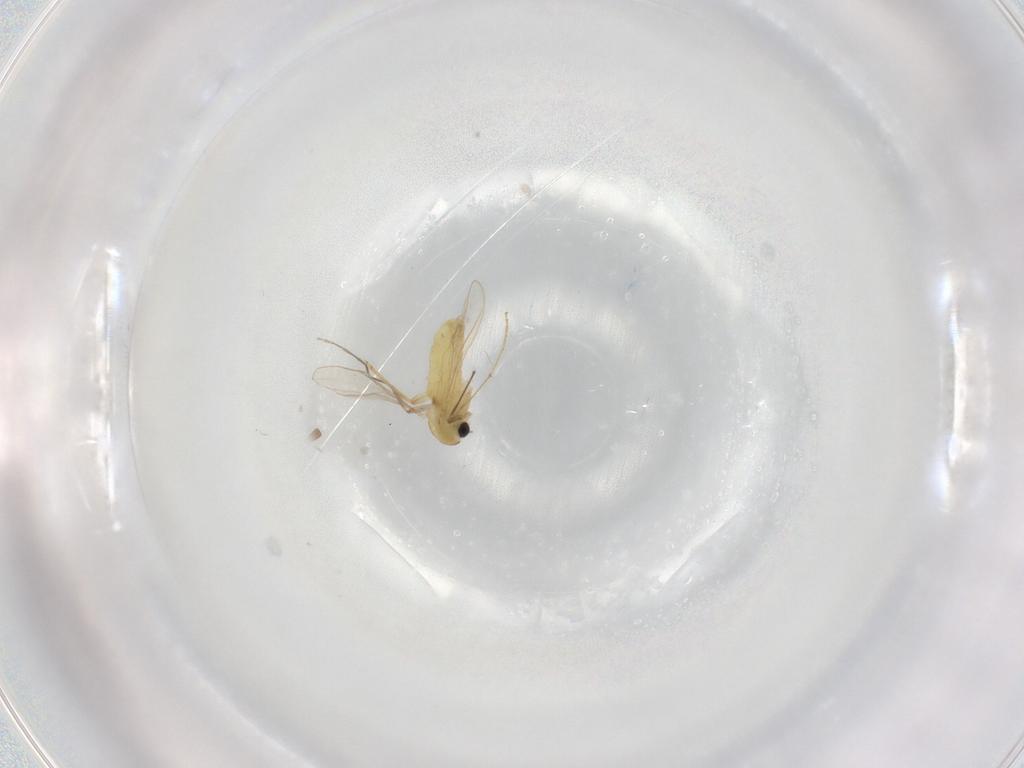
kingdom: Animalia
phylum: Arthropoda
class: Insecta
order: Diptera
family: Chironomidae
